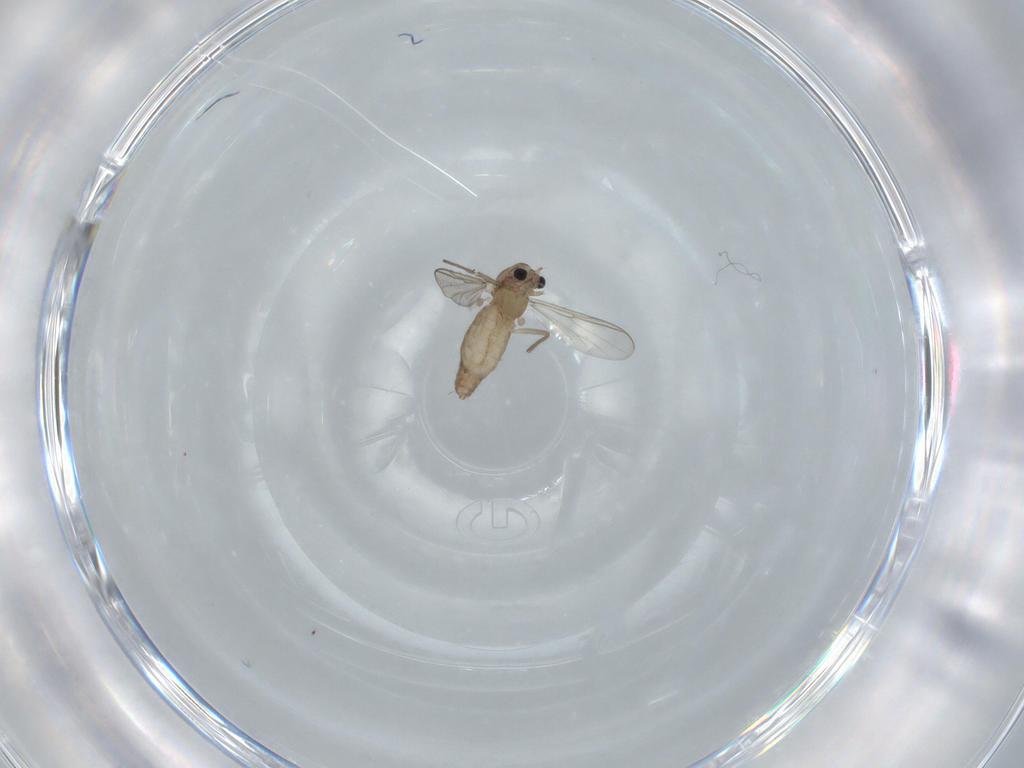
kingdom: Animalia
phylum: Arthropoda
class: Insecta
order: Diptera
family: Chironomidae
